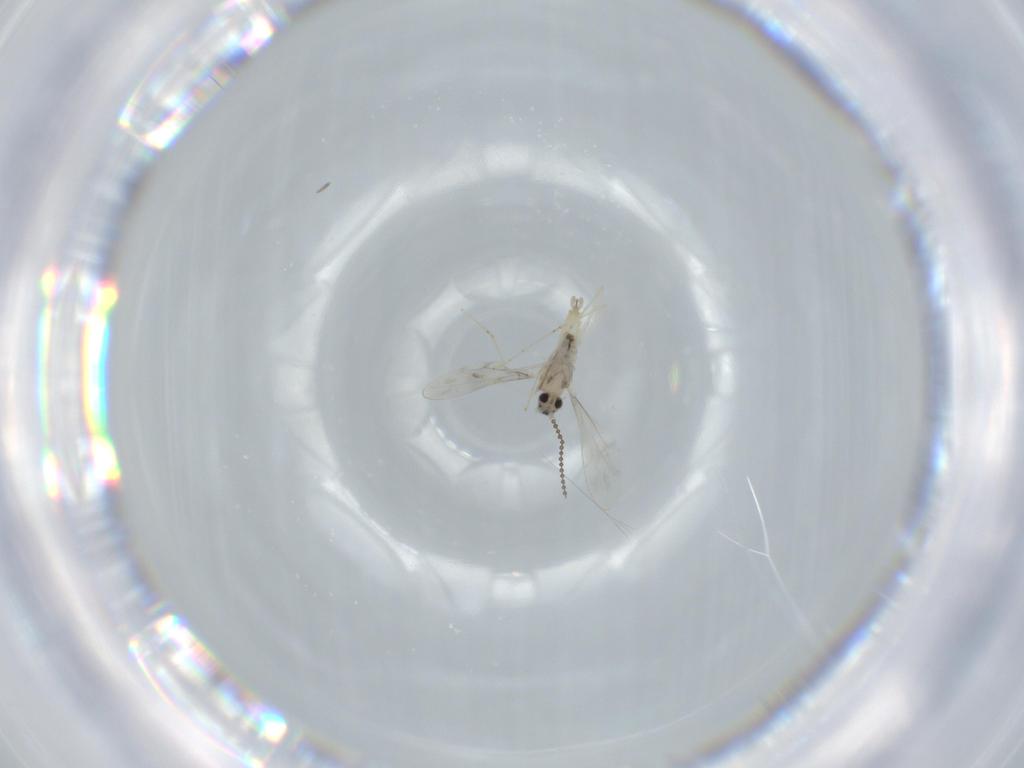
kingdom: Animalia
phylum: Arthropoda
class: Insecta
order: Diptera
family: Cecidomyiidae
